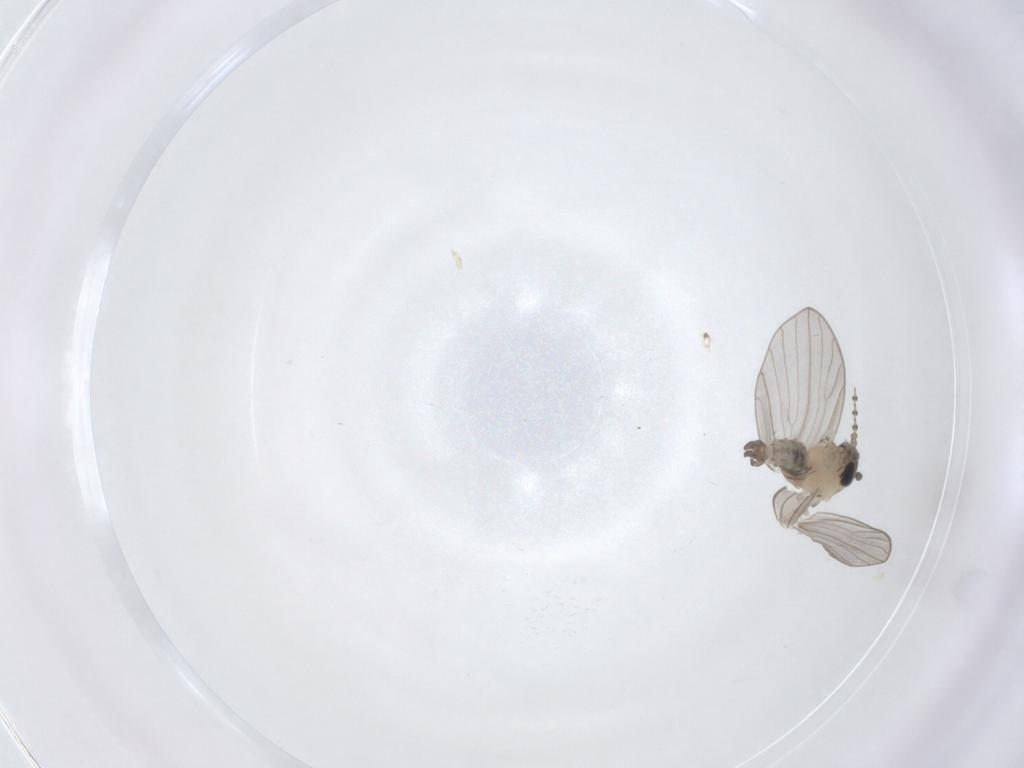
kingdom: Animalia
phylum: Arthropoda
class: Insecta
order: Diptera
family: Psychodidae
